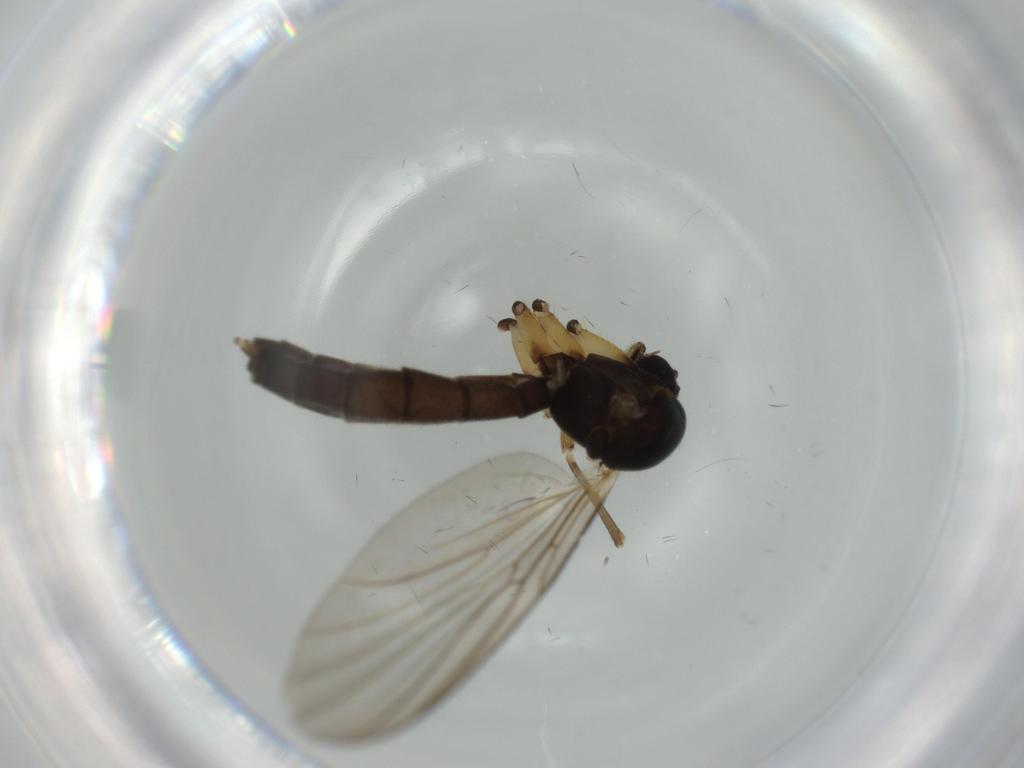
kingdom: Animalia
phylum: Arthropoda
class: Insecta
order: Diptera
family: Mycetophilidae
